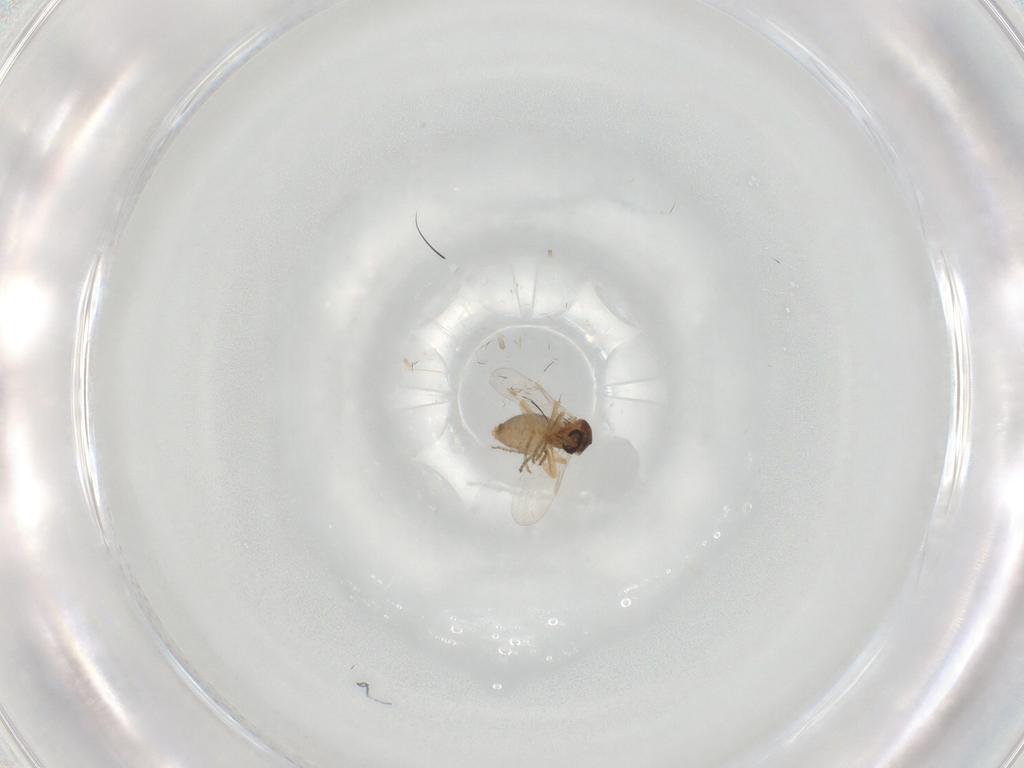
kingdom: Animalia
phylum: Arthropoda
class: Insecta
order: Diptera
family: Ceratopogonidae
